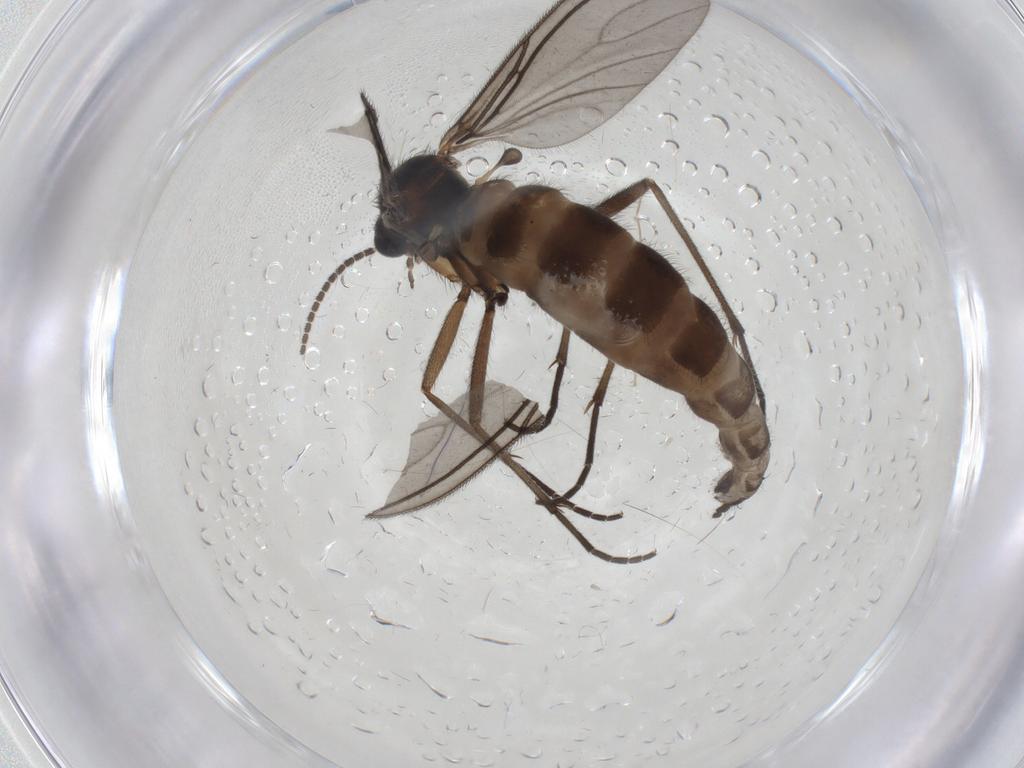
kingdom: Animalia
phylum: Arthropoda
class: Insecta
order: Diptera
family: Sciaridae
